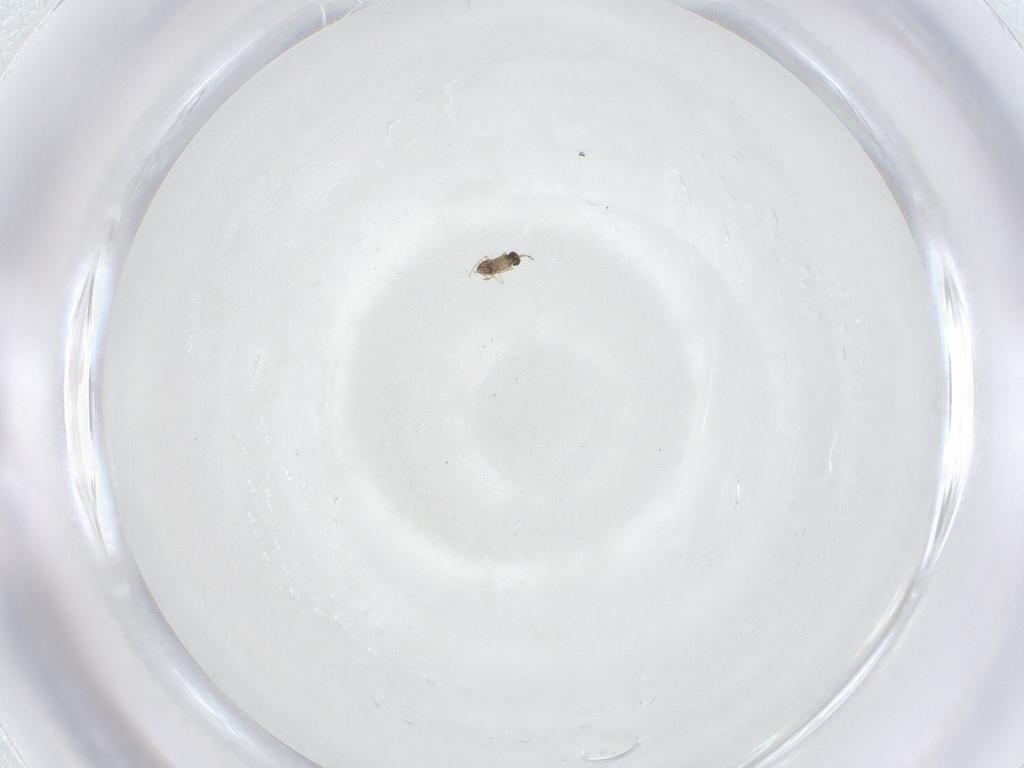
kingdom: Animalia
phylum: Arthropoda
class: Insecta
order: Hymenoptera
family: Mymaridae
